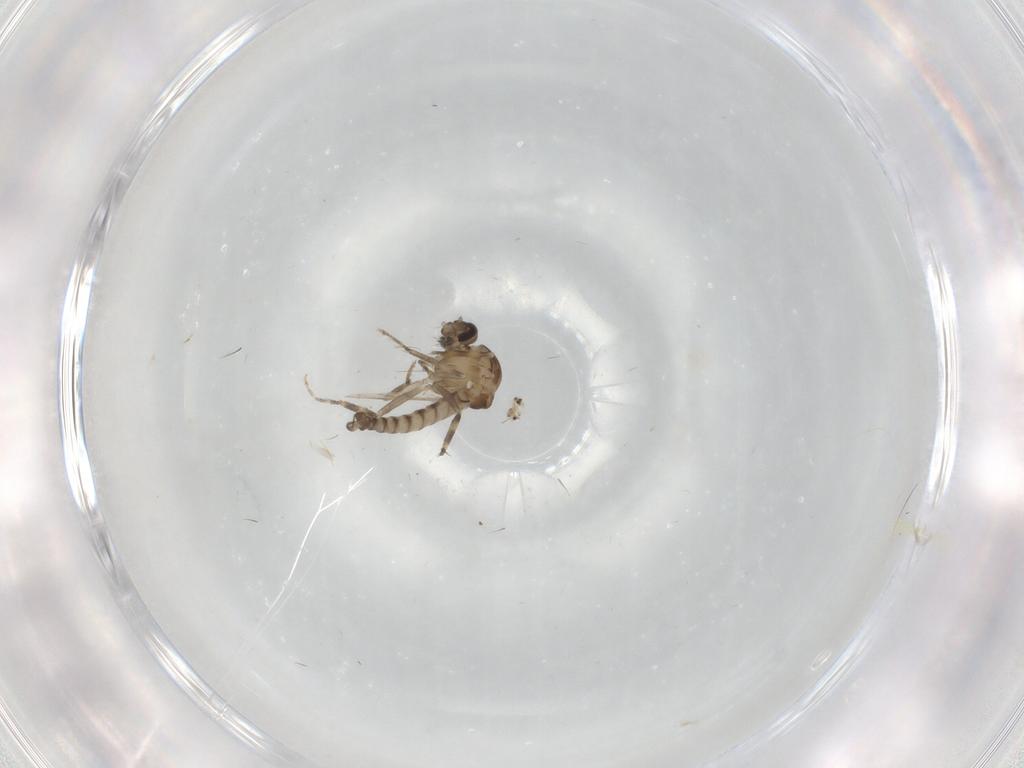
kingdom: Animalia
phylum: Arthropoda
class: Insecta
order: Diptera
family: Ceratopogonidae
